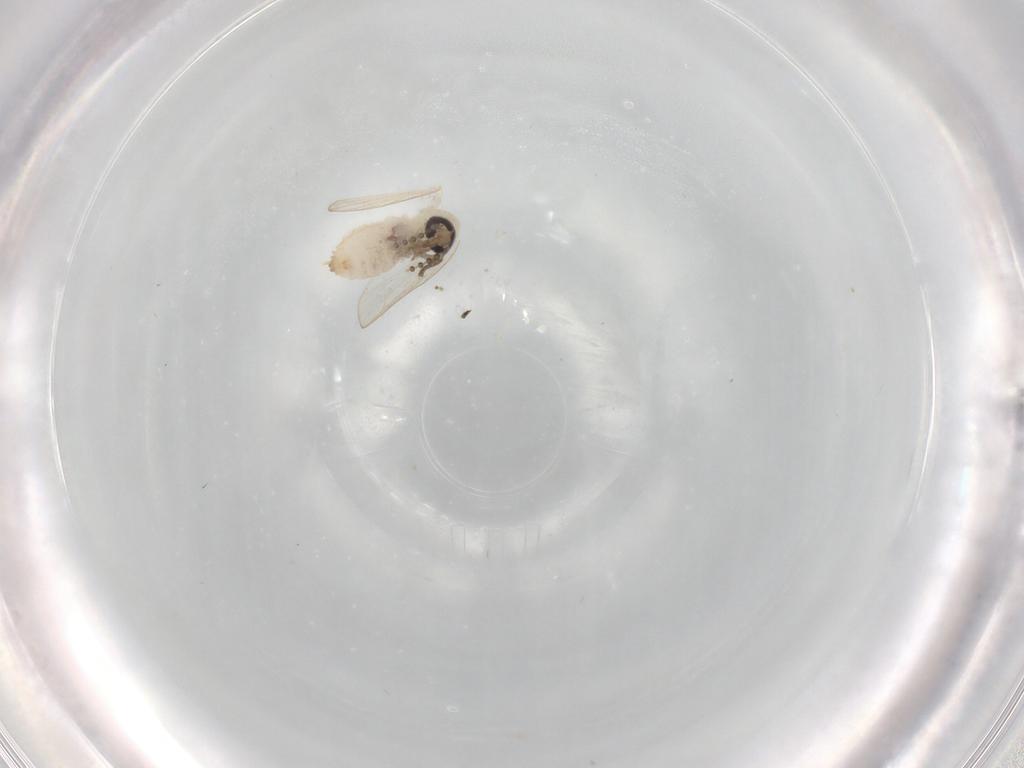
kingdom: Animalia
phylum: Arthropoda
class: Insecta
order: Diptera
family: Psychodidae
